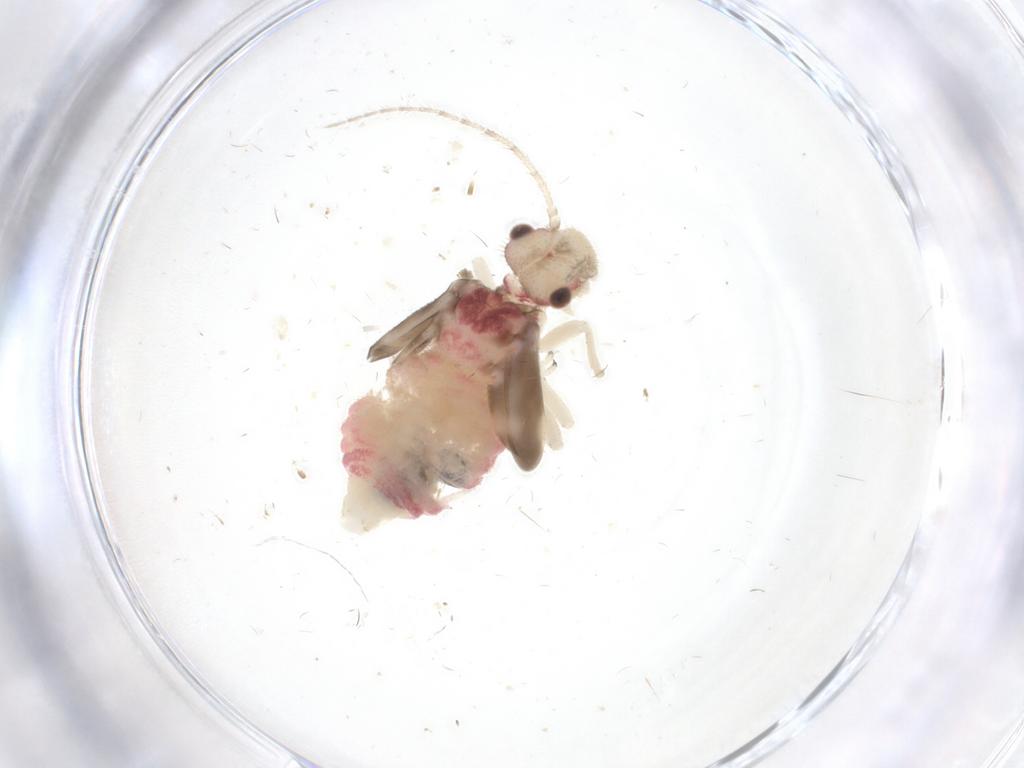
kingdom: Animalia
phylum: Arthropoda
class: Insecta
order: Psocodea
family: Amphipsocidae
